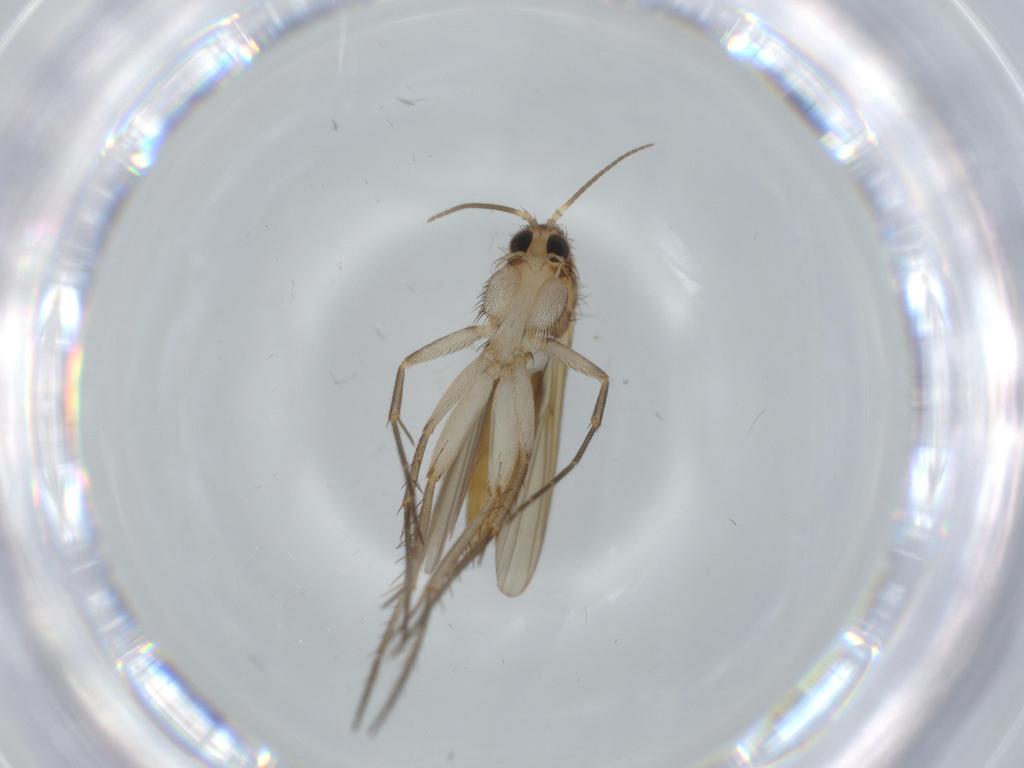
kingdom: Animalia
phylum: Arthropoda
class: Insecta
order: Diptera
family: Mycetophilidae
